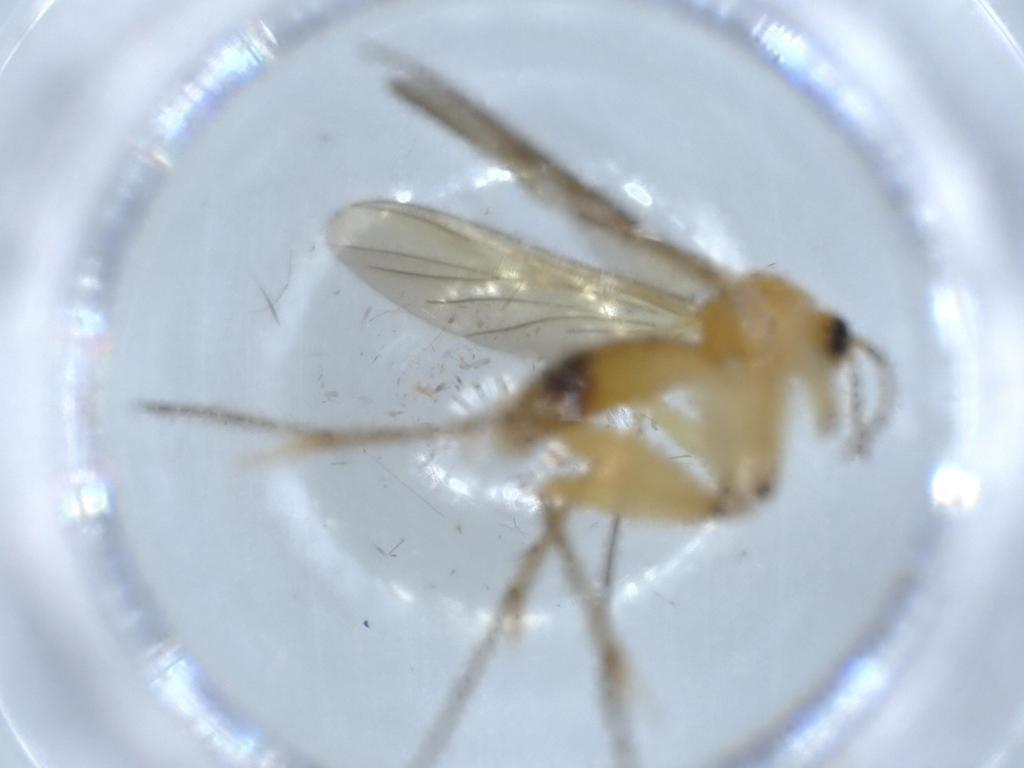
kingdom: Animalia
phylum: Arthropoda
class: Insecta
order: Diptera
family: Mycetophilidae
